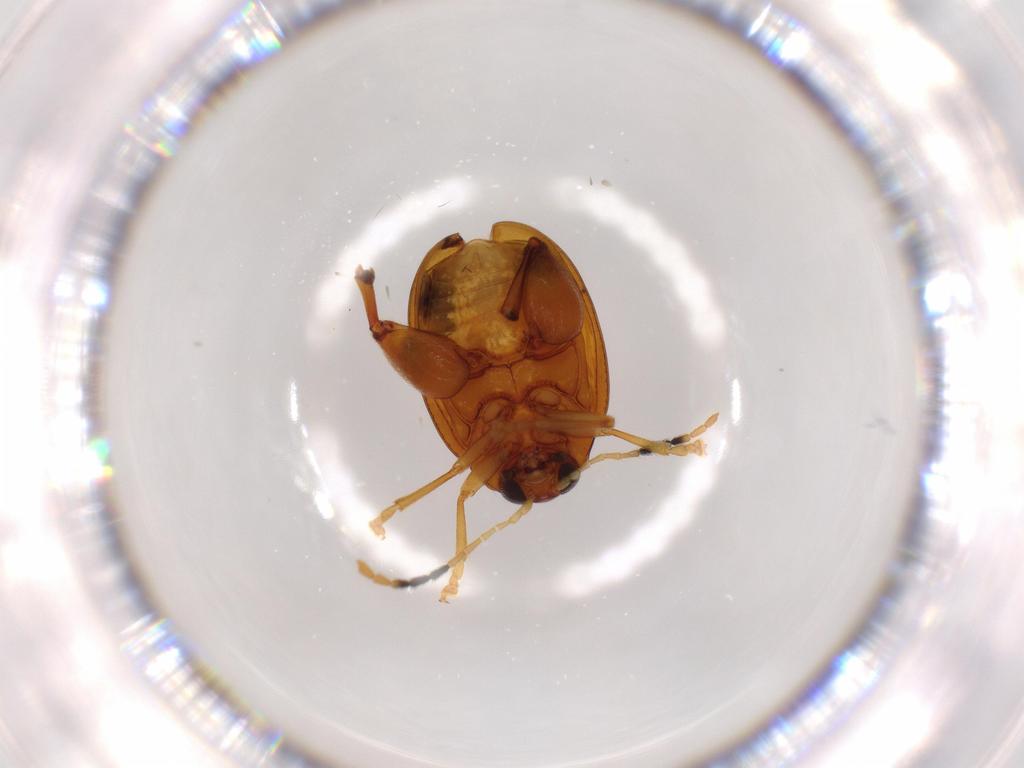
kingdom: Animalia
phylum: Arthropoda
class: Insecta
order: Coleoptera
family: Chrysomelidae
